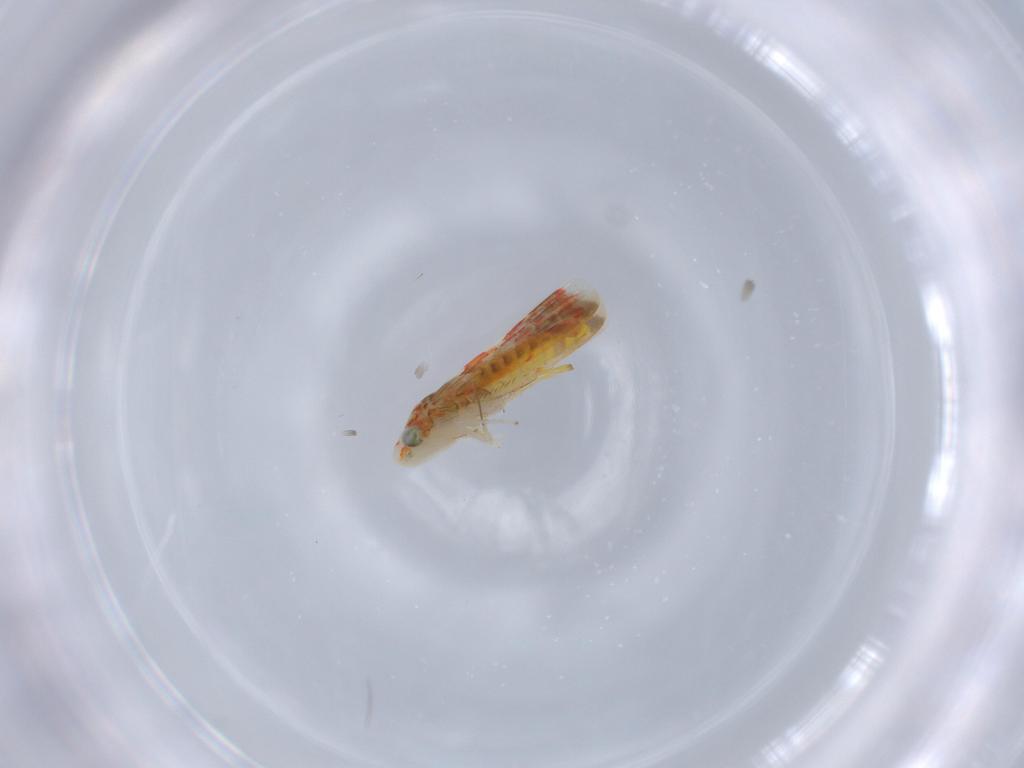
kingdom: Animalia
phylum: Arthropoda
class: Insecta
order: Hemiptera
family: Cicadellidae
